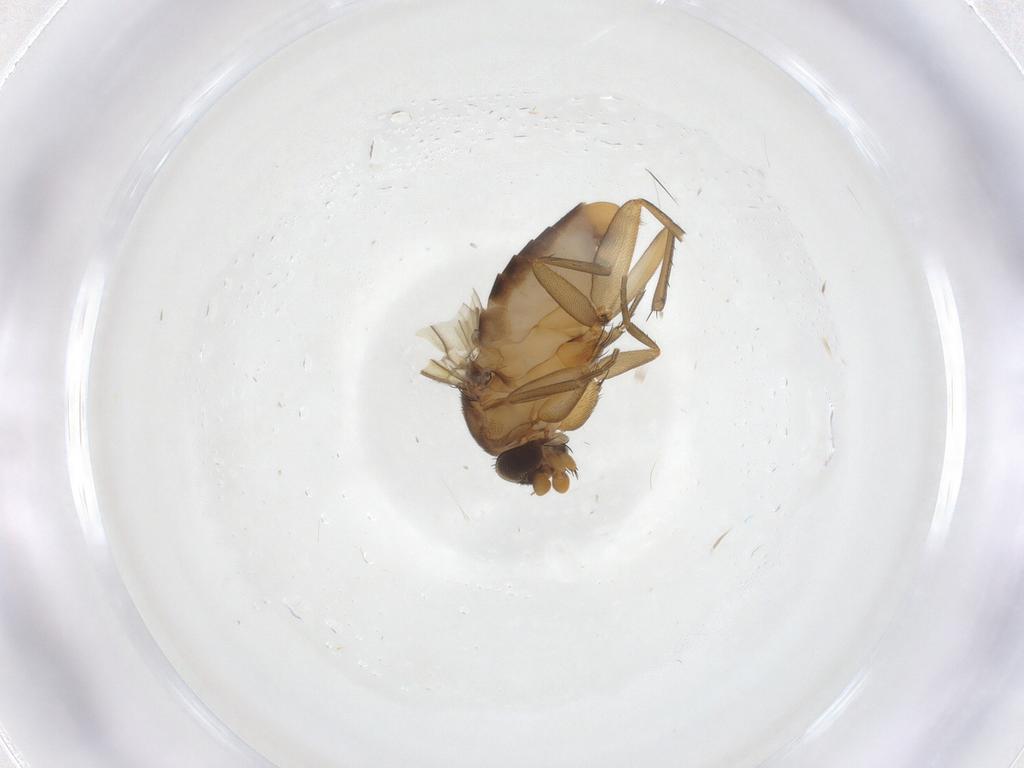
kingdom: Animalia
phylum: Arthropoda
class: Insecta
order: Diptera
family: Phoridae
